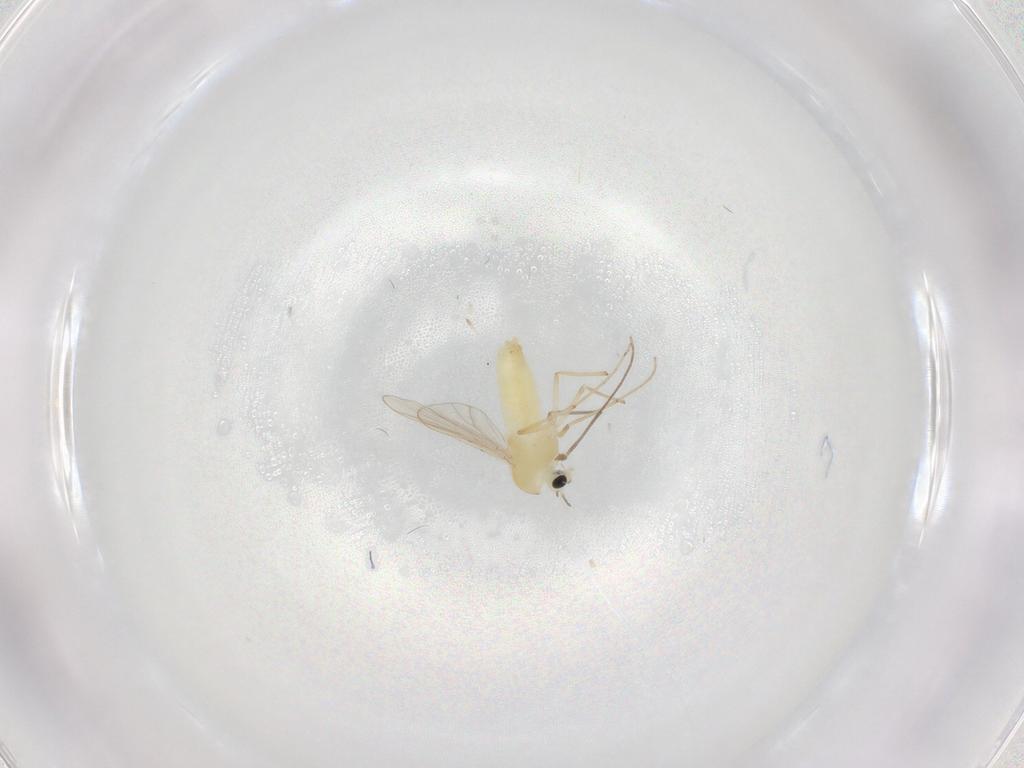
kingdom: Animalia
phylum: Arthropoda
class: Insecta
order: Diptera
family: Chironomidae
